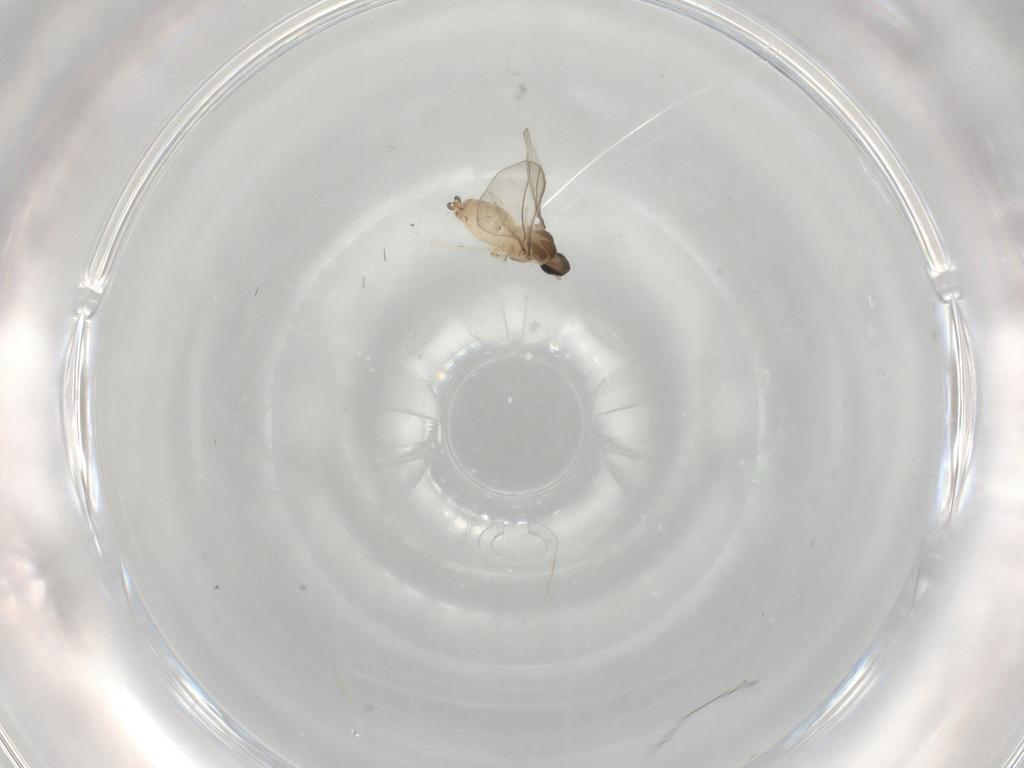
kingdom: Animalia
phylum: Arthropoda
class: Insecta
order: Diptera
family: Cecidomyiidae
